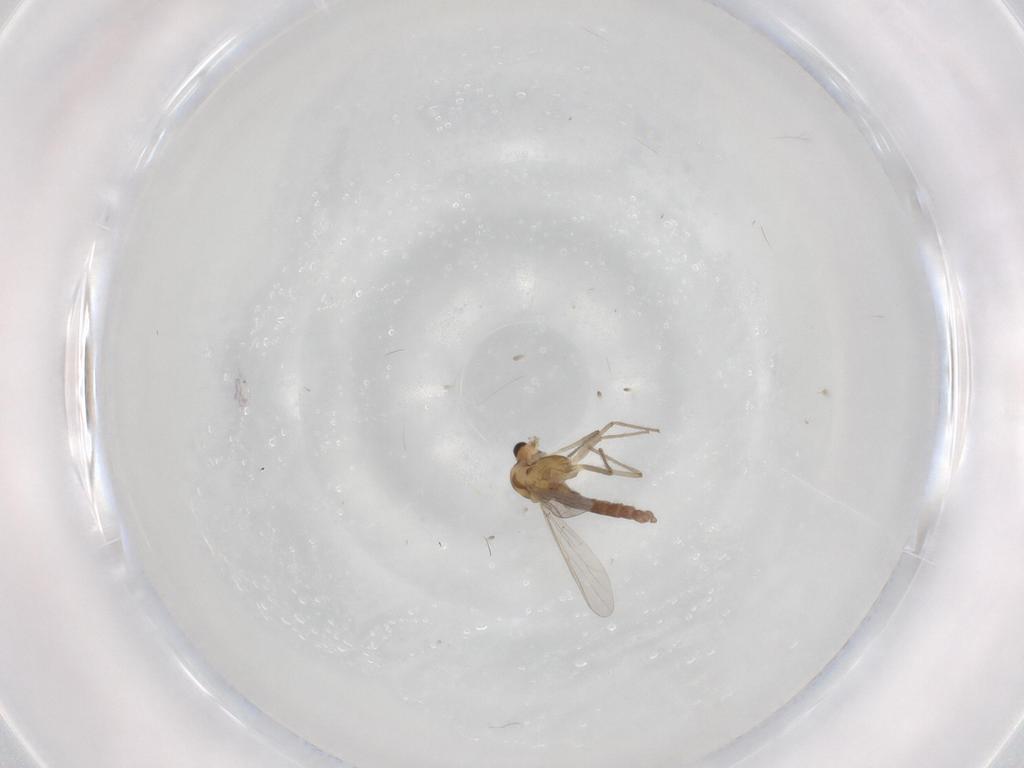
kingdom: Animalia
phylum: Arthropoda
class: Insecta
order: Diptera
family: Chironomidae
